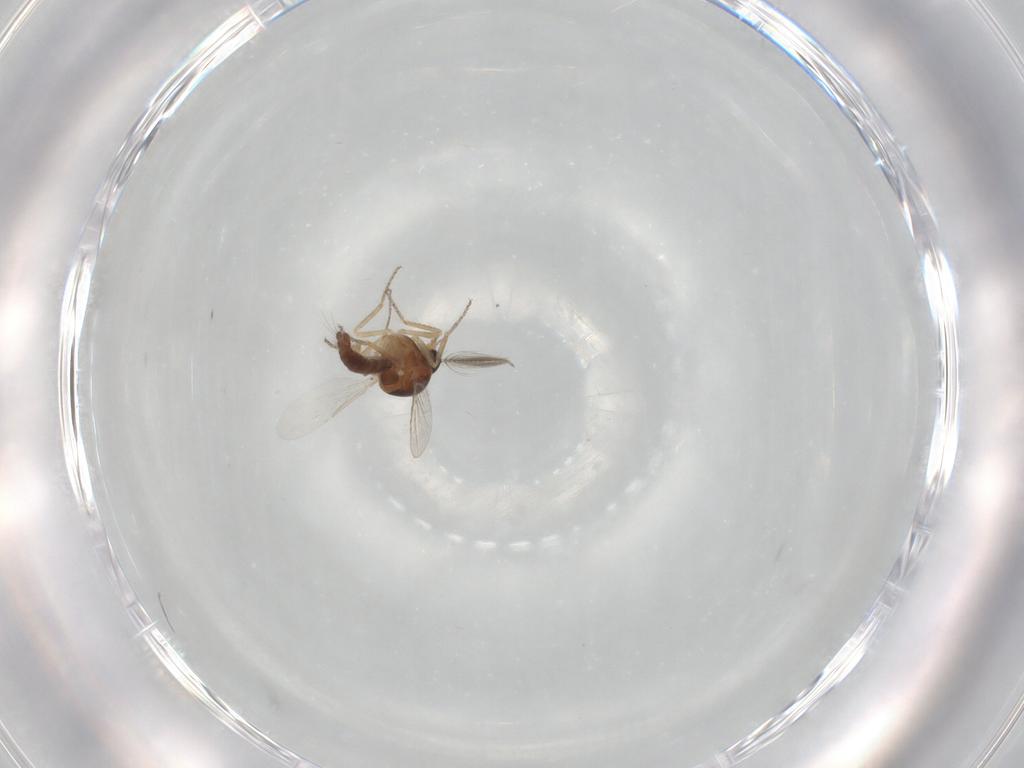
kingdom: Animalia
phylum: Arthropoda
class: Insecta
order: Diptera
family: Ceratopogonidae
